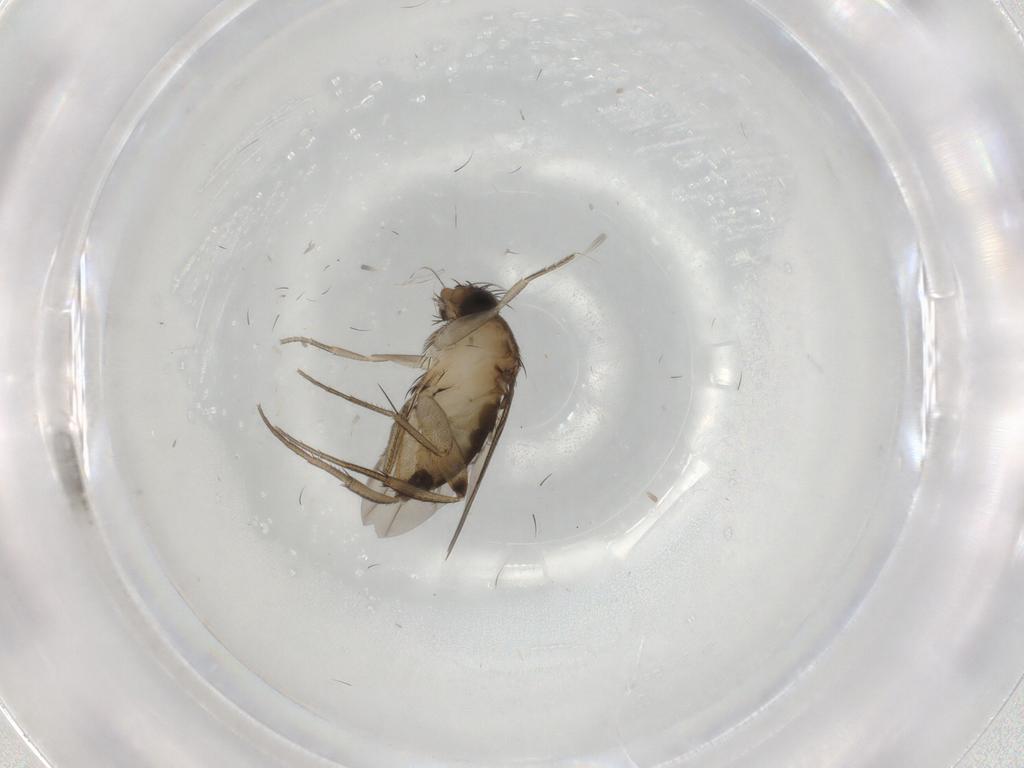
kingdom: Animalia
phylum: Arthropoda
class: Insecta
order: Diptera
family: Phoridae
